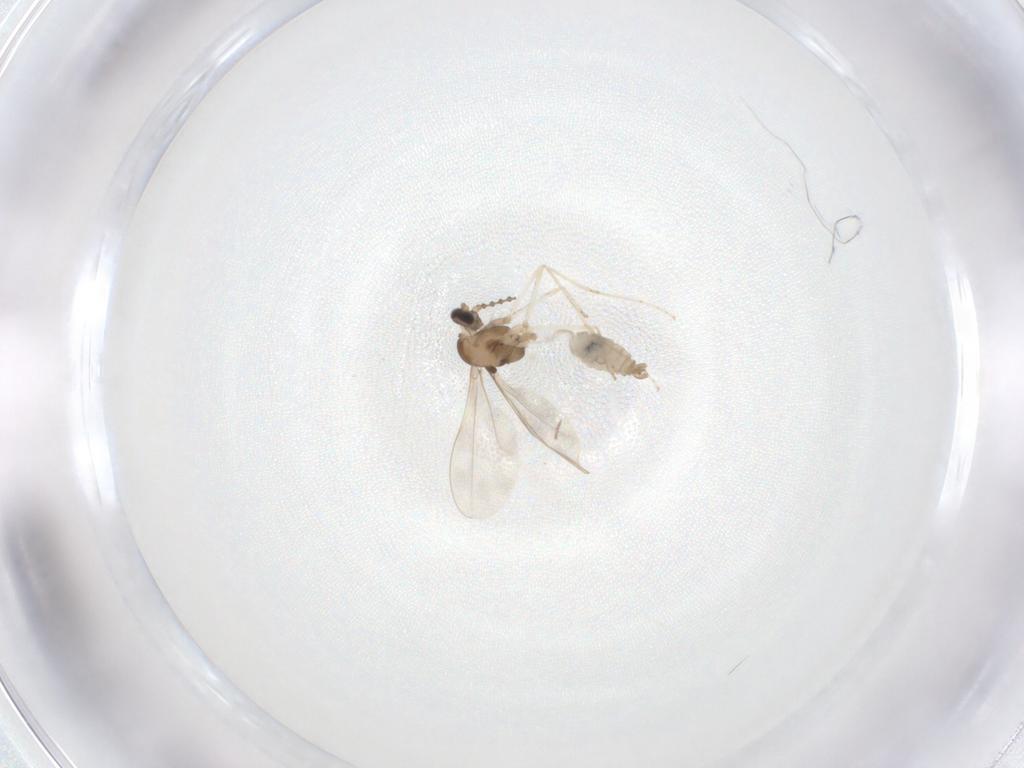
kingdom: Animalia
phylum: Arthropoda
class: Insecta
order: Diptera
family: Cecidomyiidae
